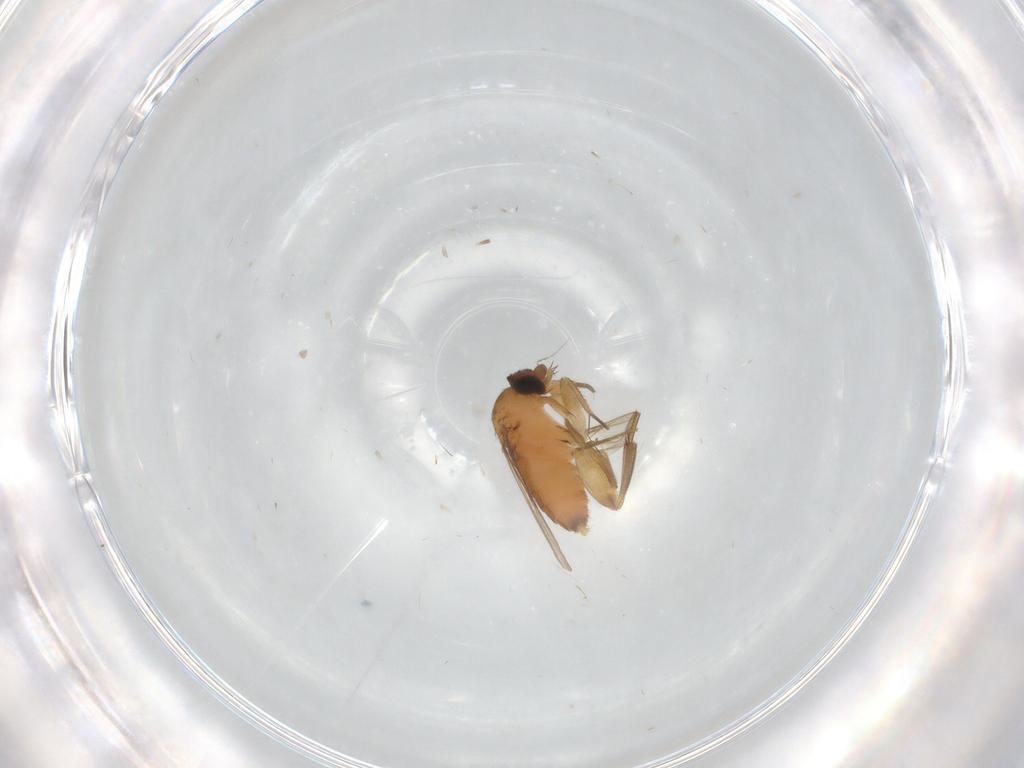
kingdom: Animalia
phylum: Arthropoda
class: Insecta
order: Diptera
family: Phoridae
